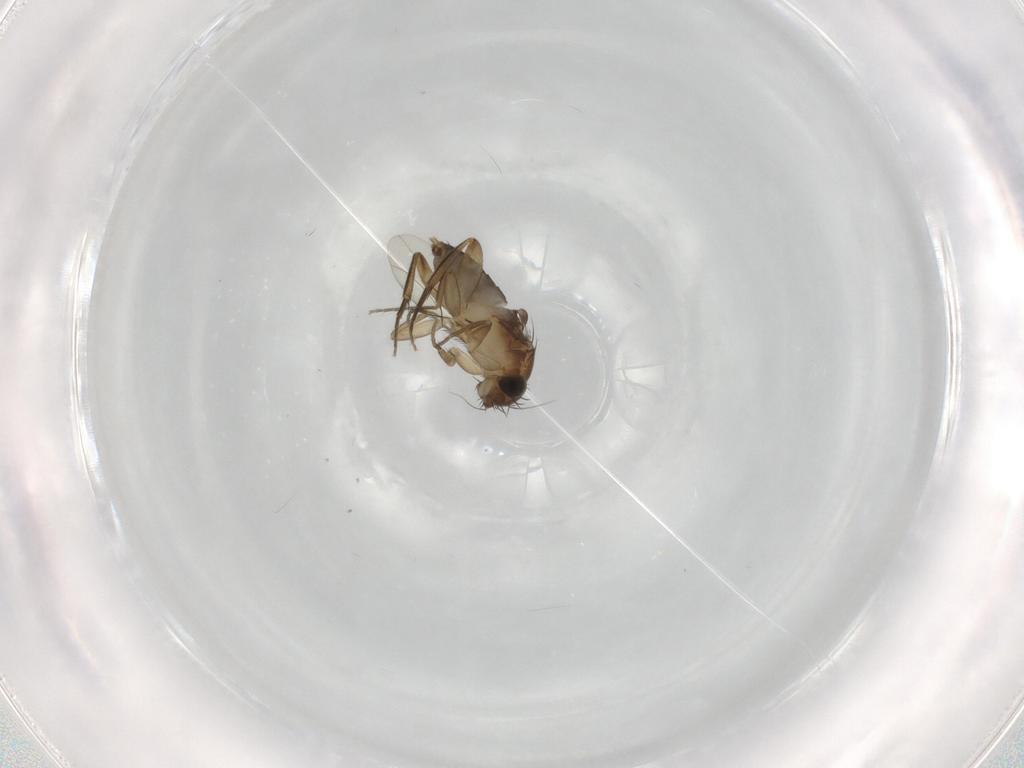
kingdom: Animalia
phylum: Arthropoda
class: Insecta
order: Diptera
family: Phoridae
